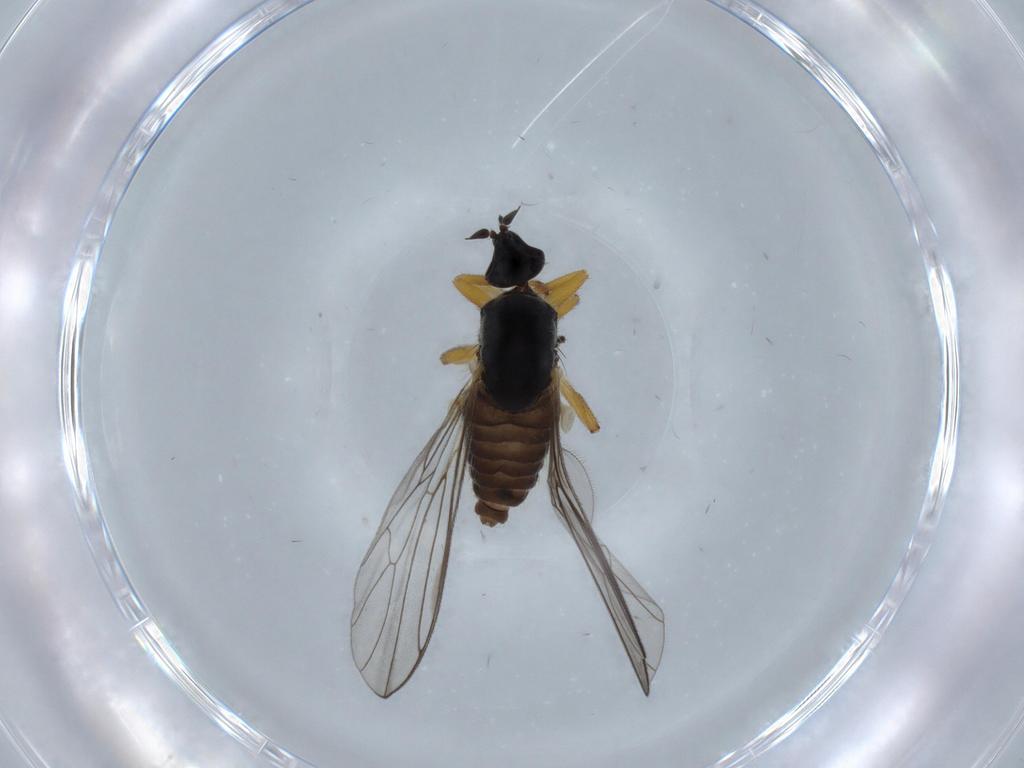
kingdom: Animalia
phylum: Arthropoda
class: Insecta
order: Diptera
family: Empididae
